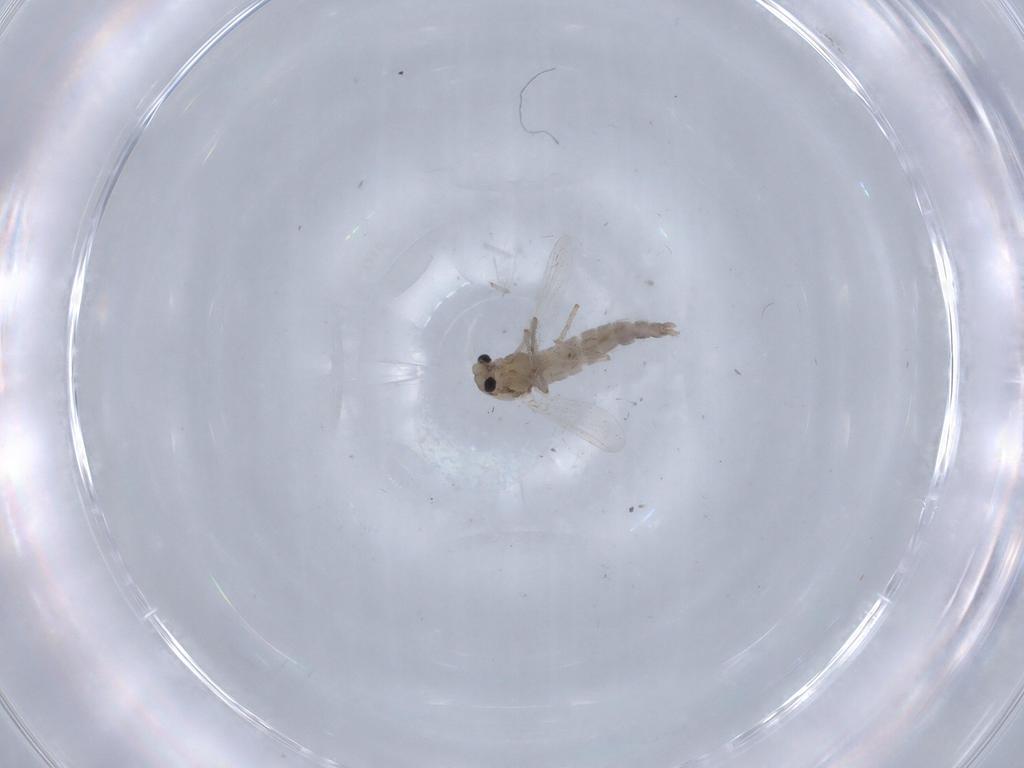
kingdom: Animalia
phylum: Arthropoda
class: Insecta
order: Diptera
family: Chironomidae
